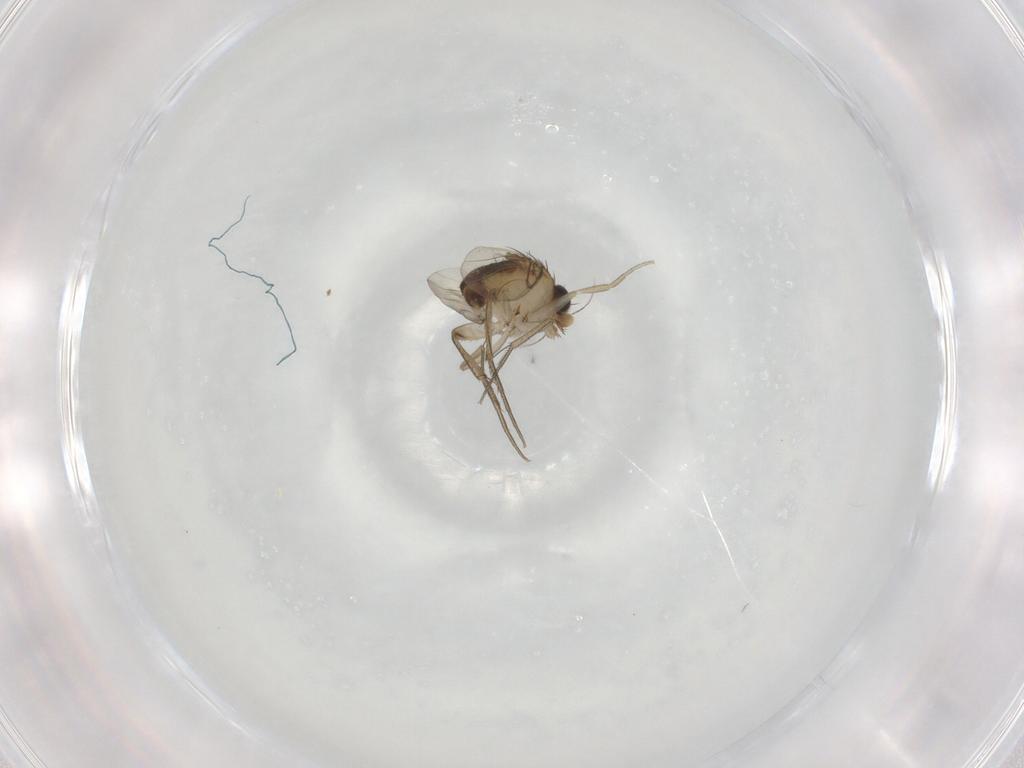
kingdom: Animalia
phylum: Arthropoda
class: Insecta
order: Diptera
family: Phoridae
